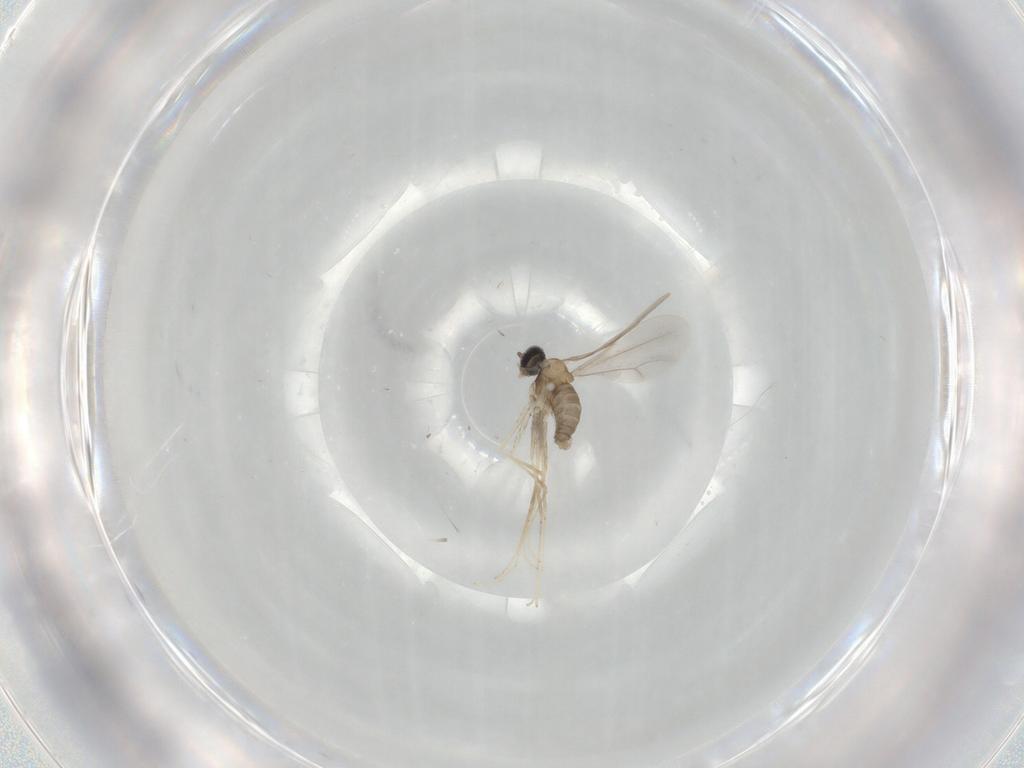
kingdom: Animalia
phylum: Arthropoda
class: Insecta
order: Diptera
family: Cecidomyiidae
